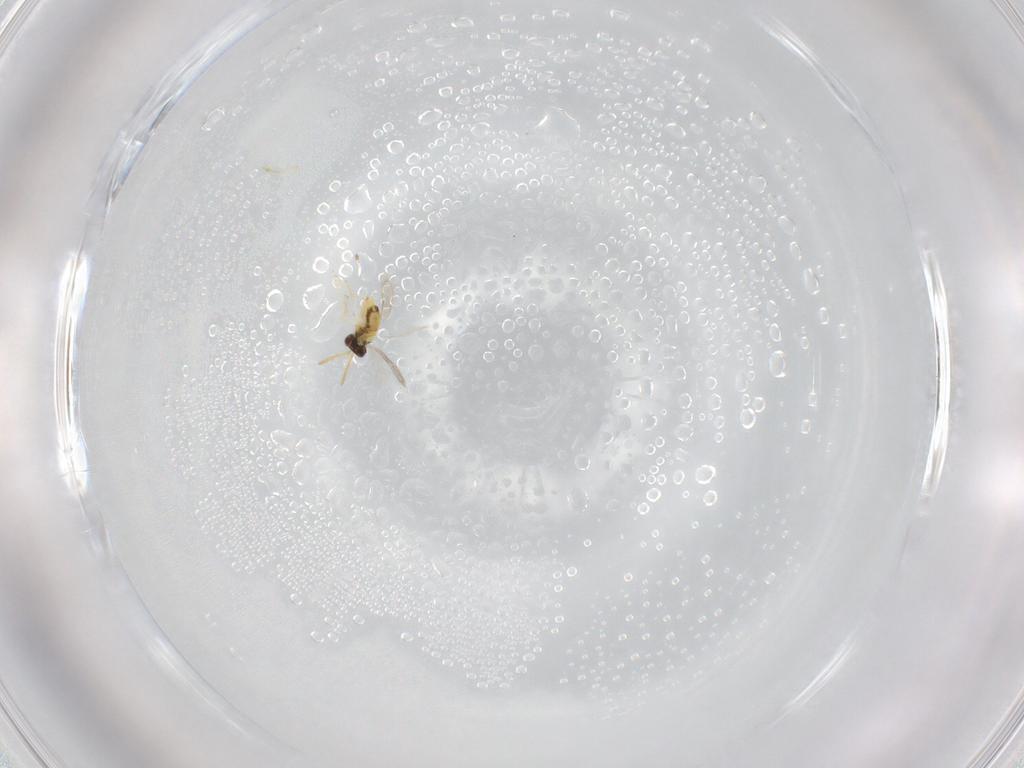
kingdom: Animalia
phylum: Arthropoda
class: Insecta
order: Hymenoptera
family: Aphelinidae
